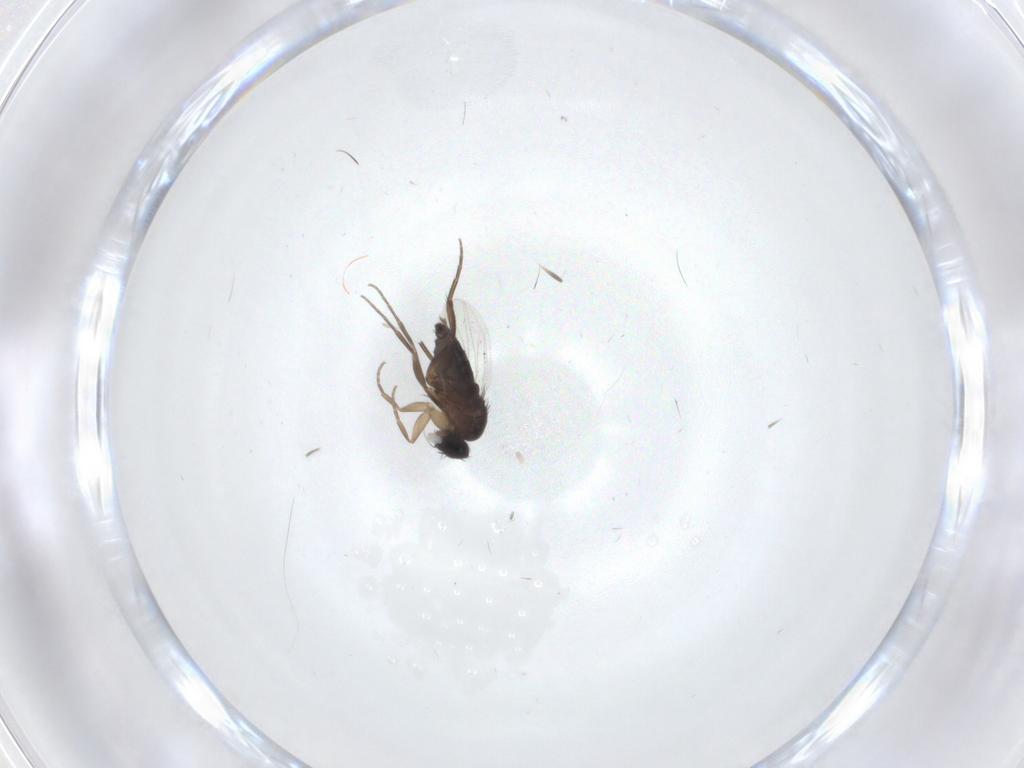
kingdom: Animalia
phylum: Arthropoda
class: Insecta
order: Diptera
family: Phoridae
